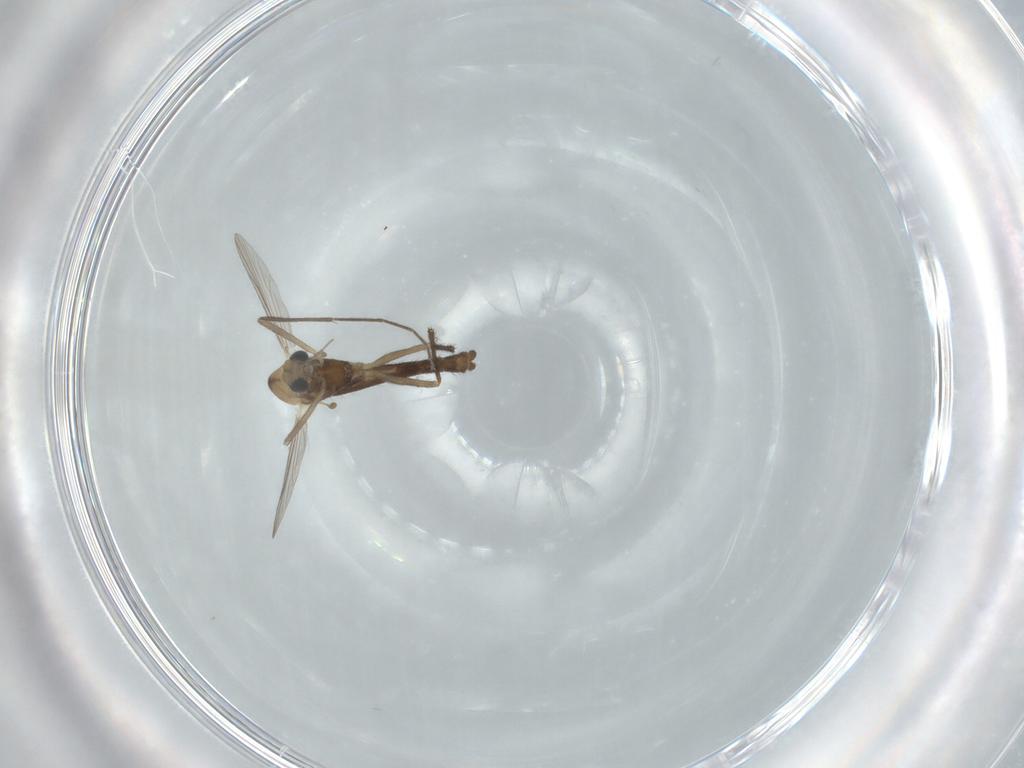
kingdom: Animalia
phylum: Arthropoda
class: Insecta
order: Diptera
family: Chironomidae
